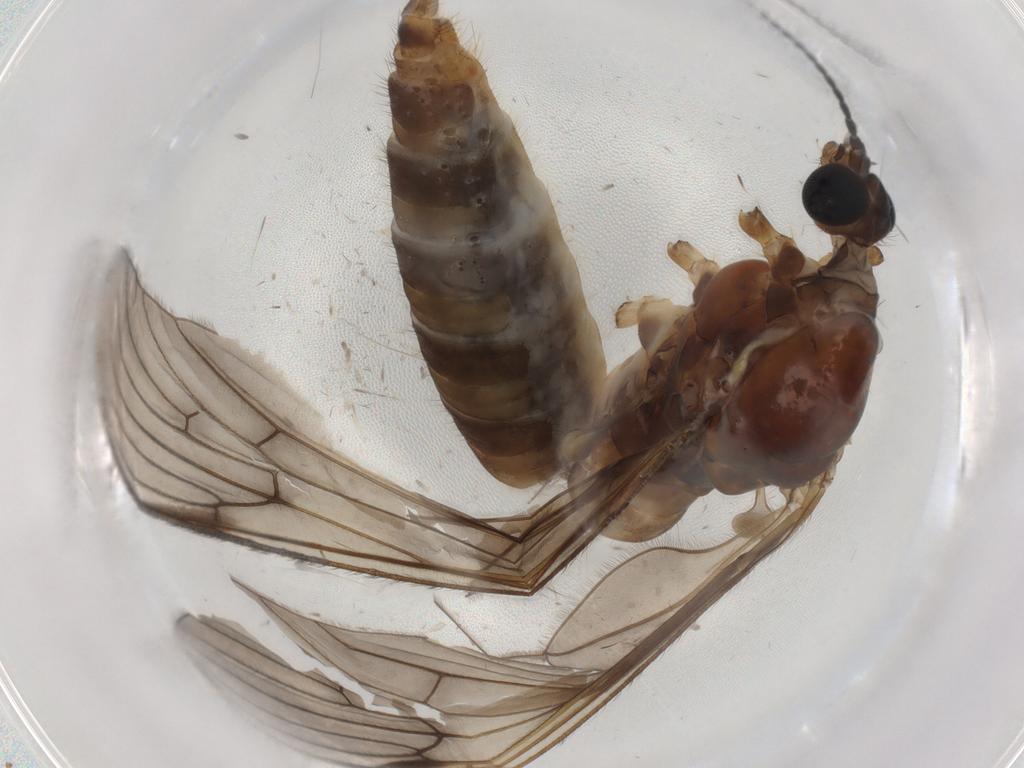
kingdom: Animalia
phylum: Arthropoda
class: Insecta
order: Diptera
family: Limoniidae
